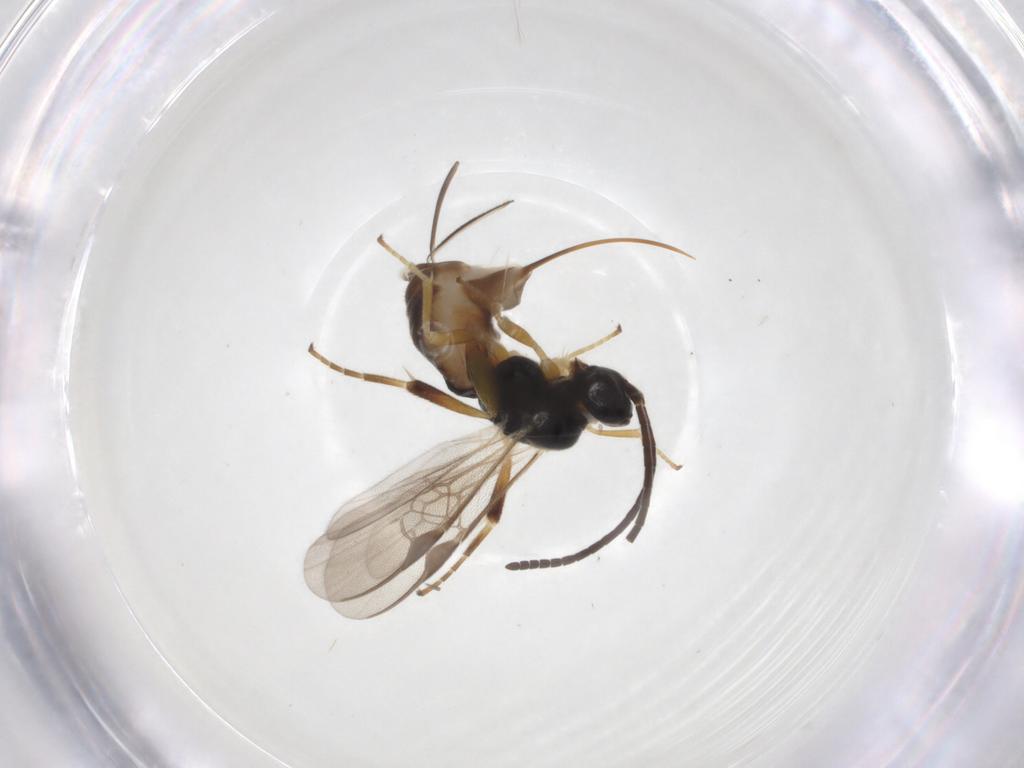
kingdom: Animalia
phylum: Arthropoda
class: Insecta
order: Hymenoptera
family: Braconidae
